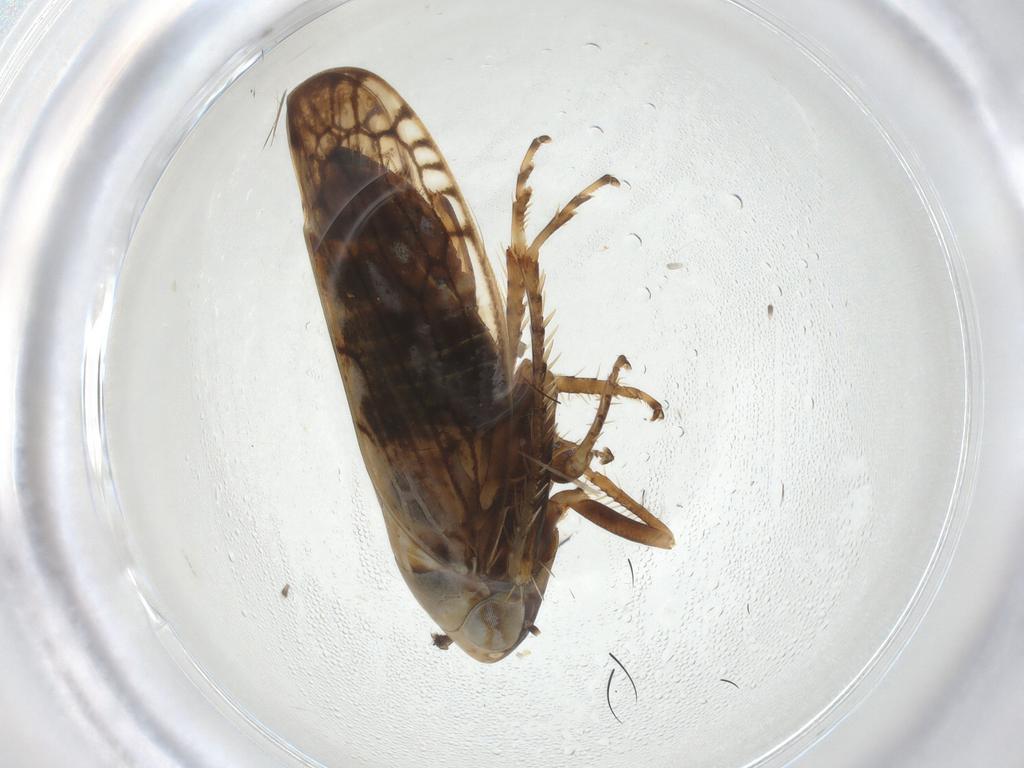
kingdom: Animalia
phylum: Arthropoda
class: Insecta
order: Hemiptera
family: Cicadellidae
